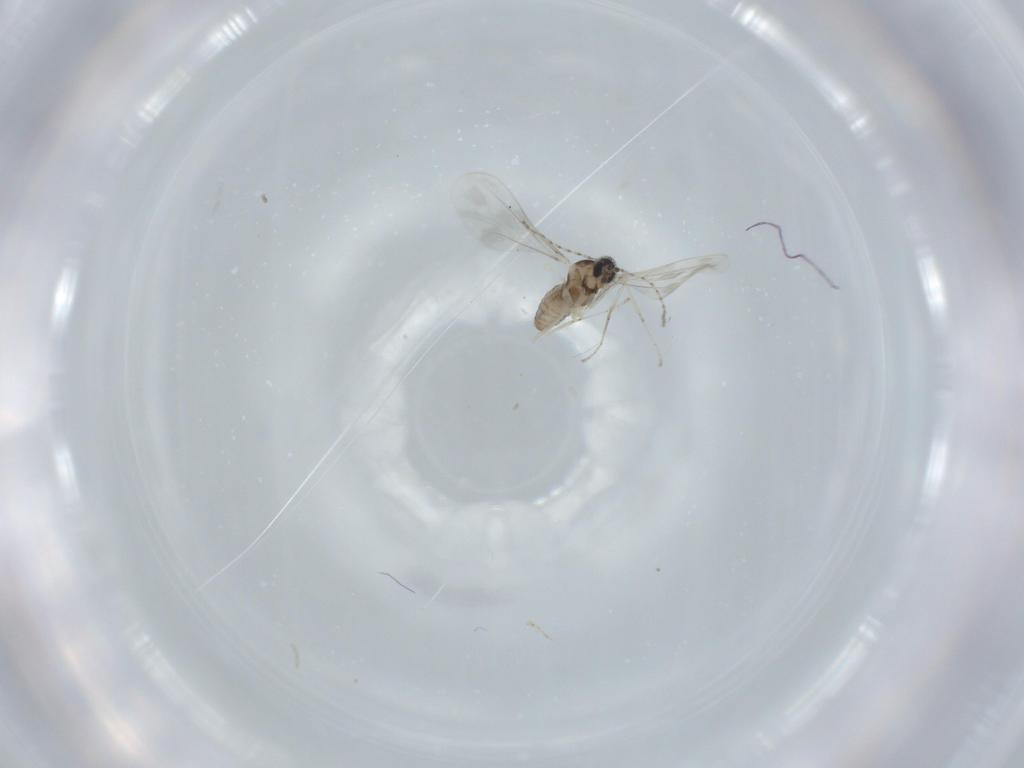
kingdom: Animalia
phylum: Arthropoda
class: Insecta
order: Diptera
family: Cecidomyiidae
